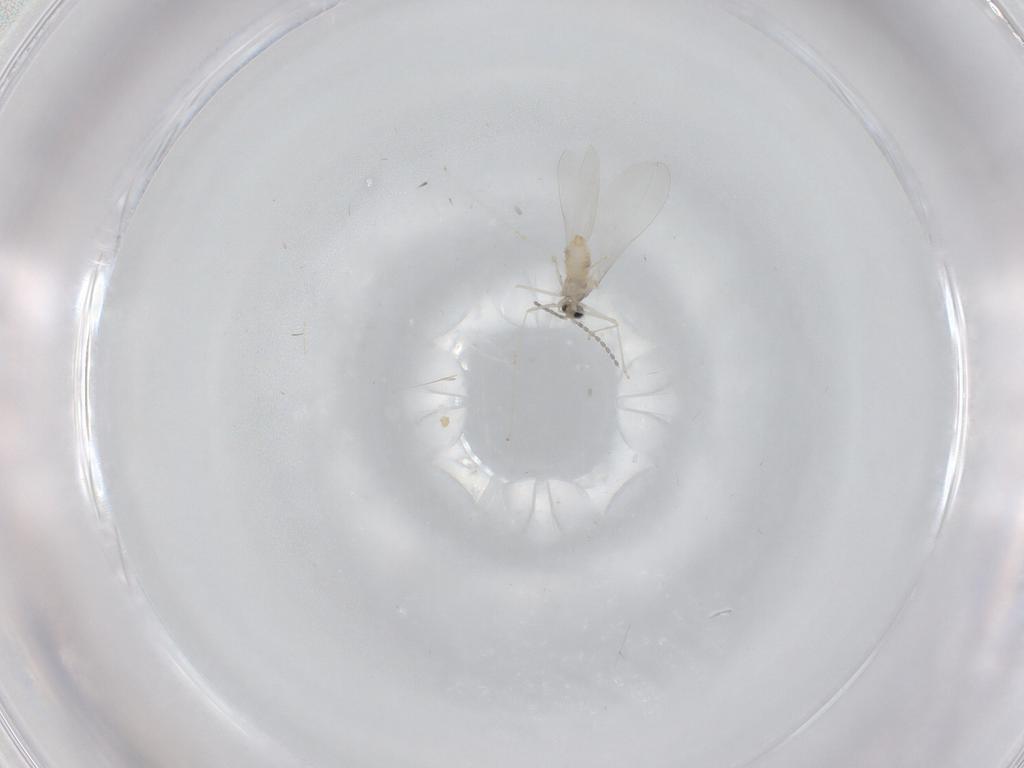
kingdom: Animalia
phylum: Arthropoda
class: Insecta
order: Diptera
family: Cecidomyiidae
